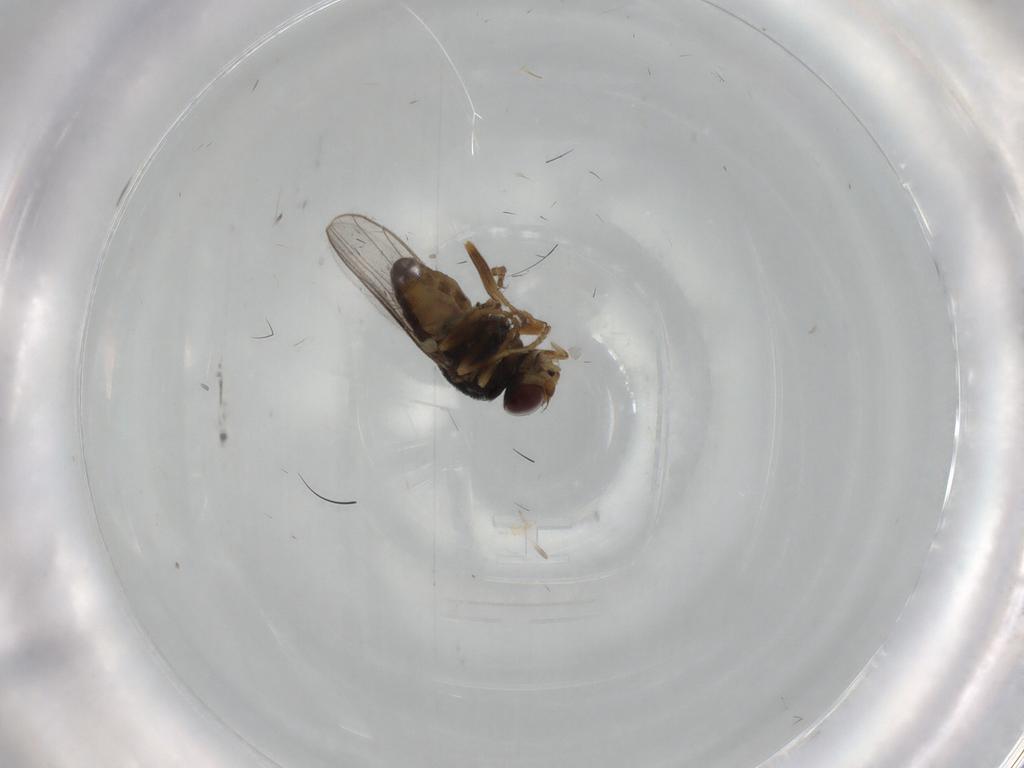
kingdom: Animalia
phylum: Arthropoda
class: Insecta
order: Diptera
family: Chloropidae
